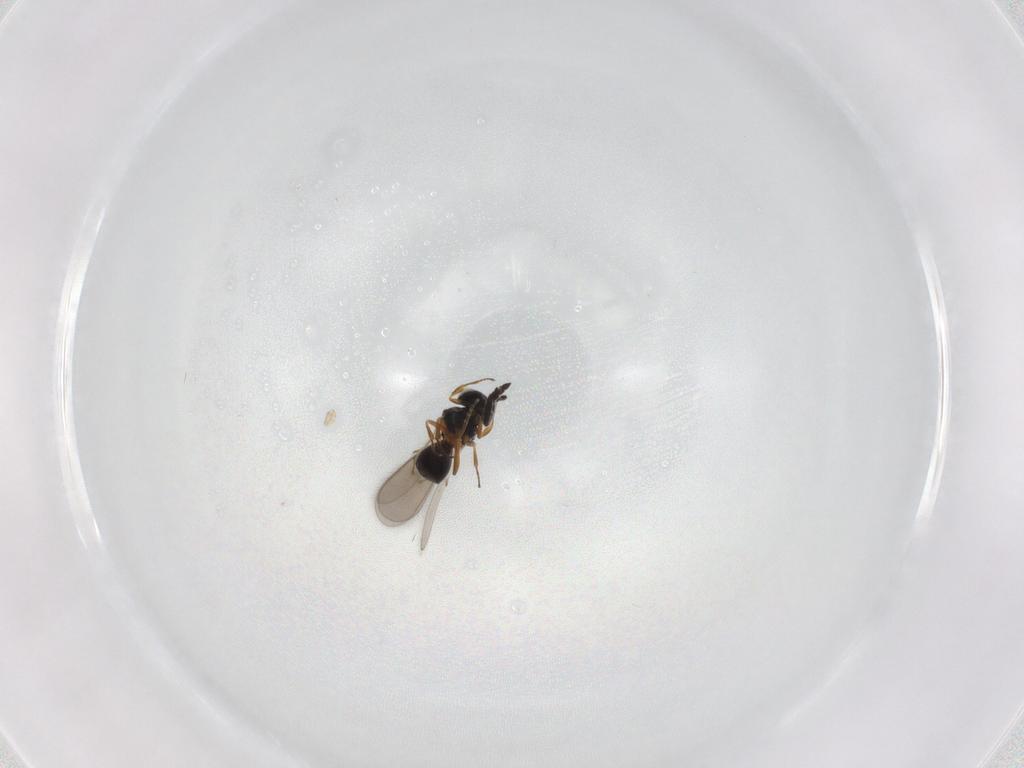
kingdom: Animalia
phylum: Arthropoda
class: Insecta
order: Hymenoptera
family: Scelionidae
